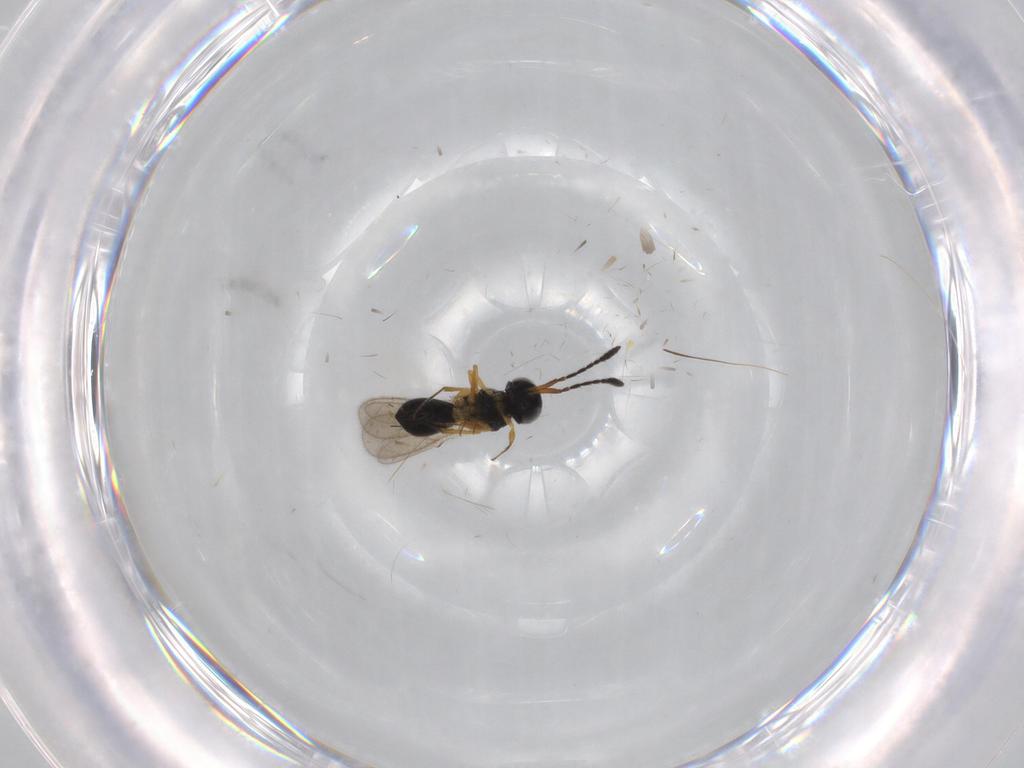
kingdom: Animalia
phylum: Arthropoda
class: Insecta
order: Hymenoptera
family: Scelionidae
